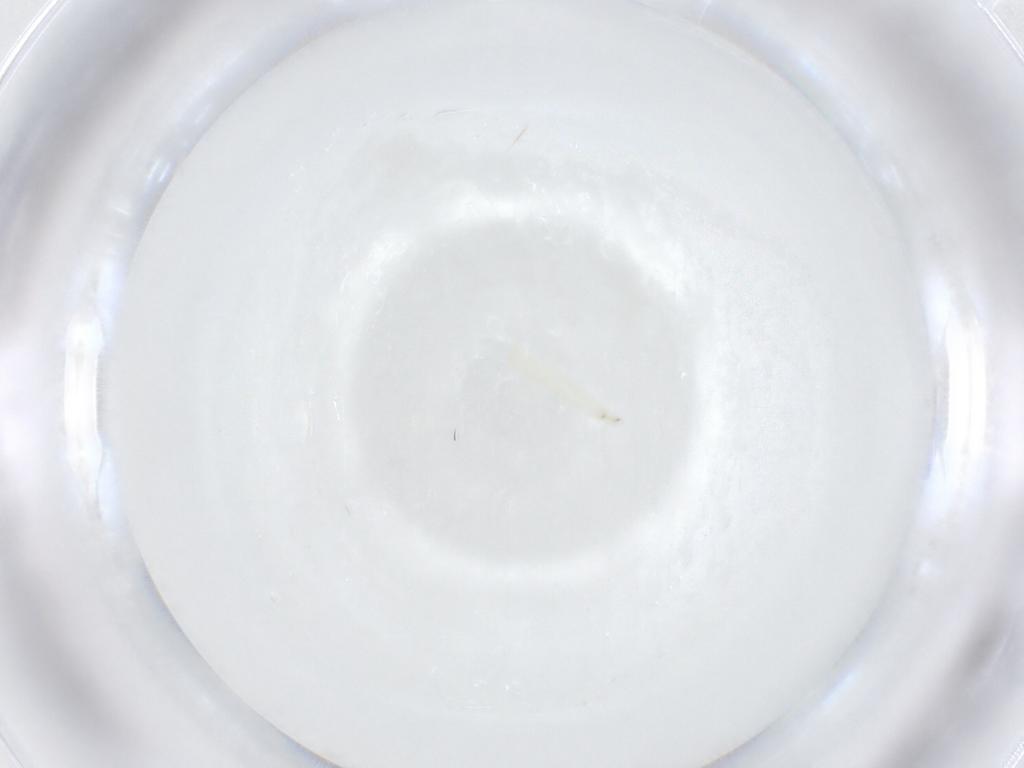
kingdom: Animalia
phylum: Arthropoda
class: Insecta
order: Diptera
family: Sarcophagidae
